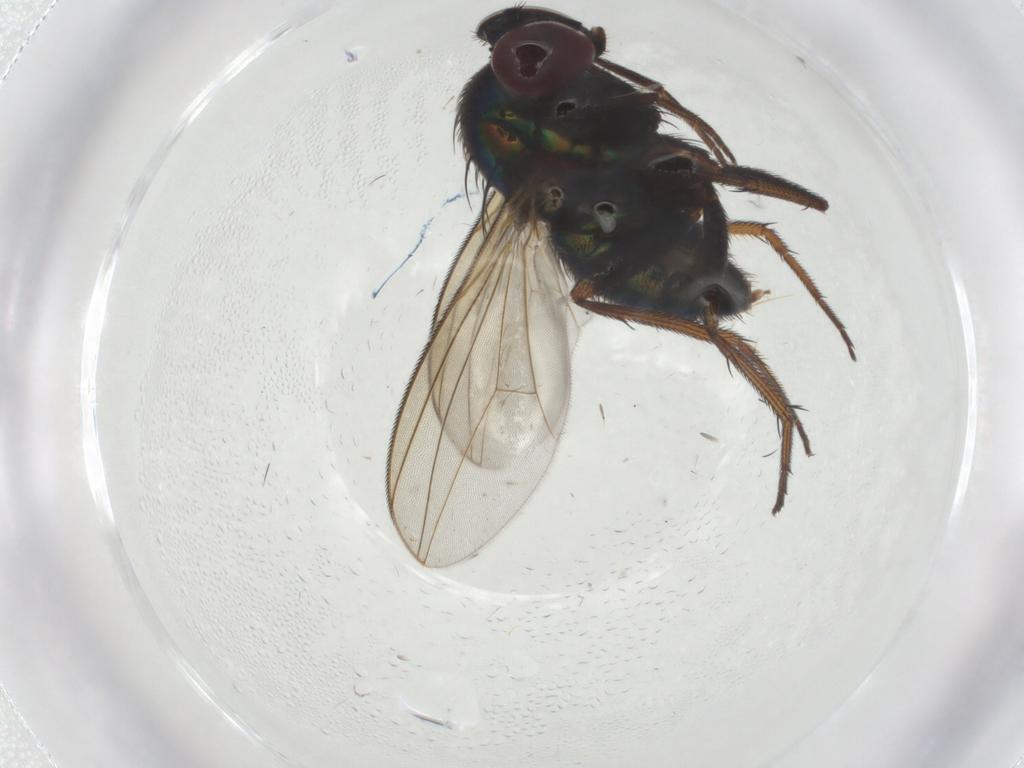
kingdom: Animalia
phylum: Arthropoda
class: Insecta
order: Diptera
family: Dolichopodidae
